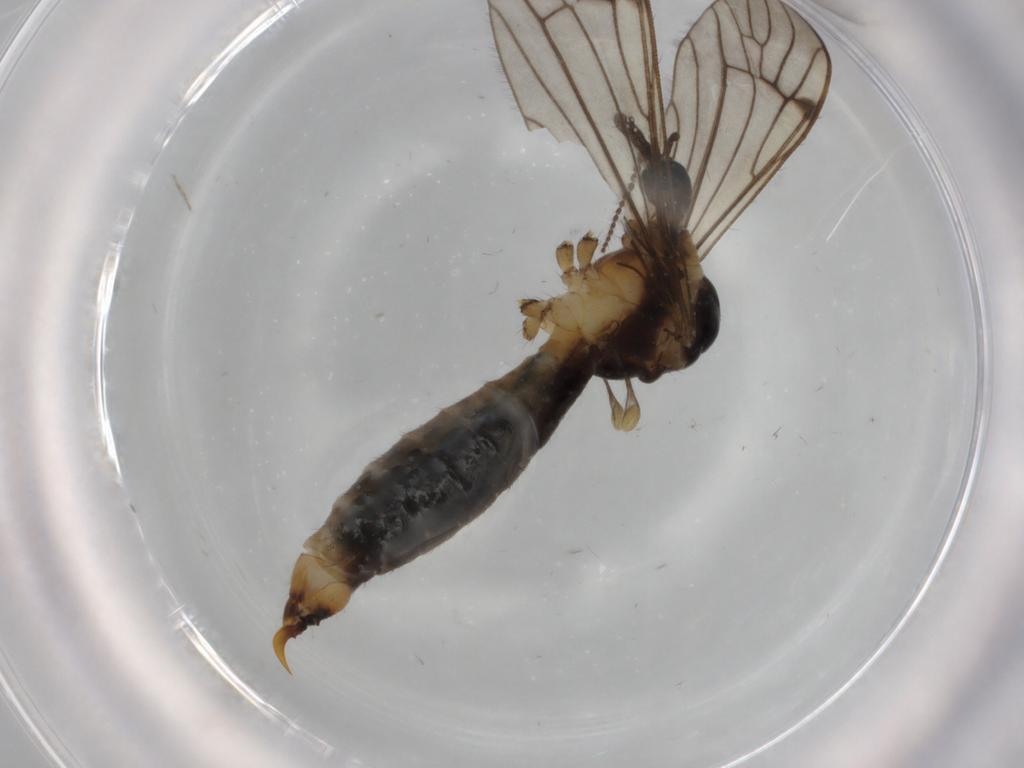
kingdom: Animalia
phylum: Arthropoda
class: Insecta
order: Diptera
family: Limoniidae
